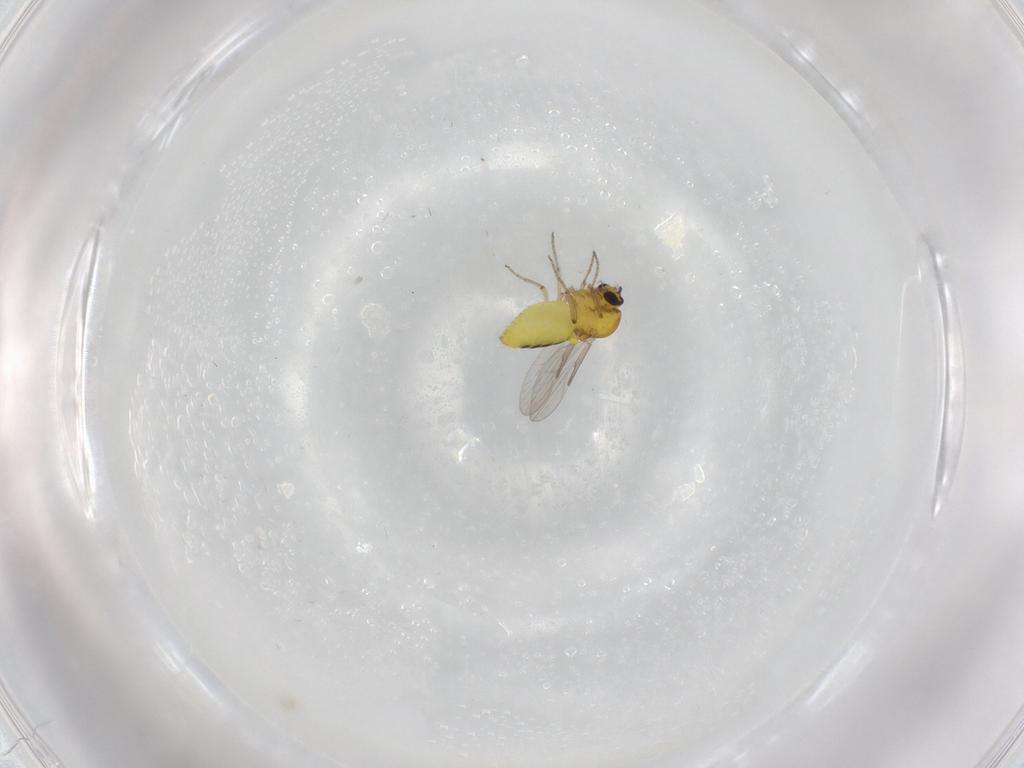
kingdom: Animalia
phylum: Arthropoda
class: Insecta
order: Diptera
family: Ceratopogonidae
